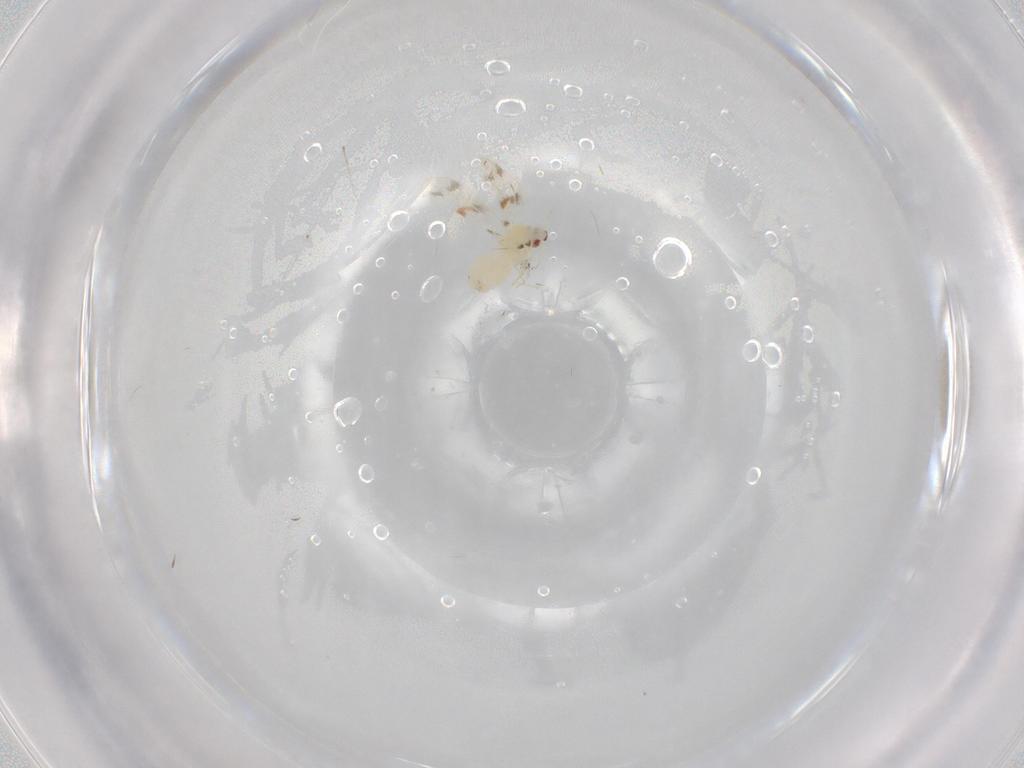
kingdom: Animalia
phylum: Arthropoda
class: Insecta
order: Hemiptera
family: Aleyrodidae
